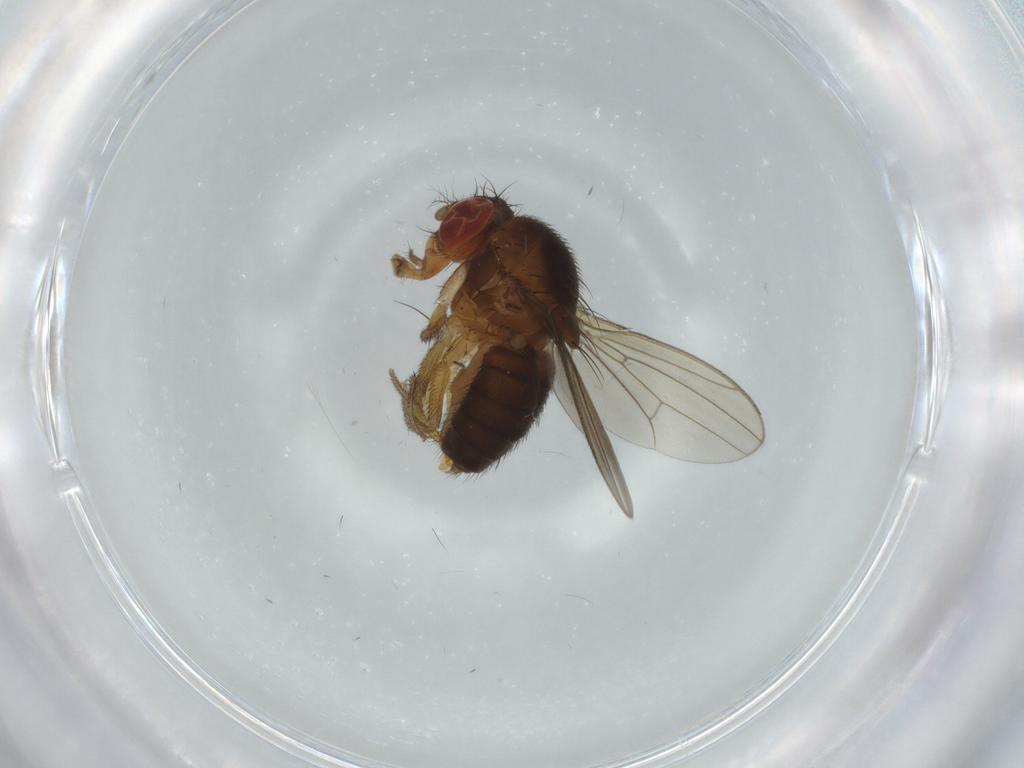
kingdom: Animalia
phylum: Arthropoda
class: Insecta
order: Diptera
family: Drosophilidae
